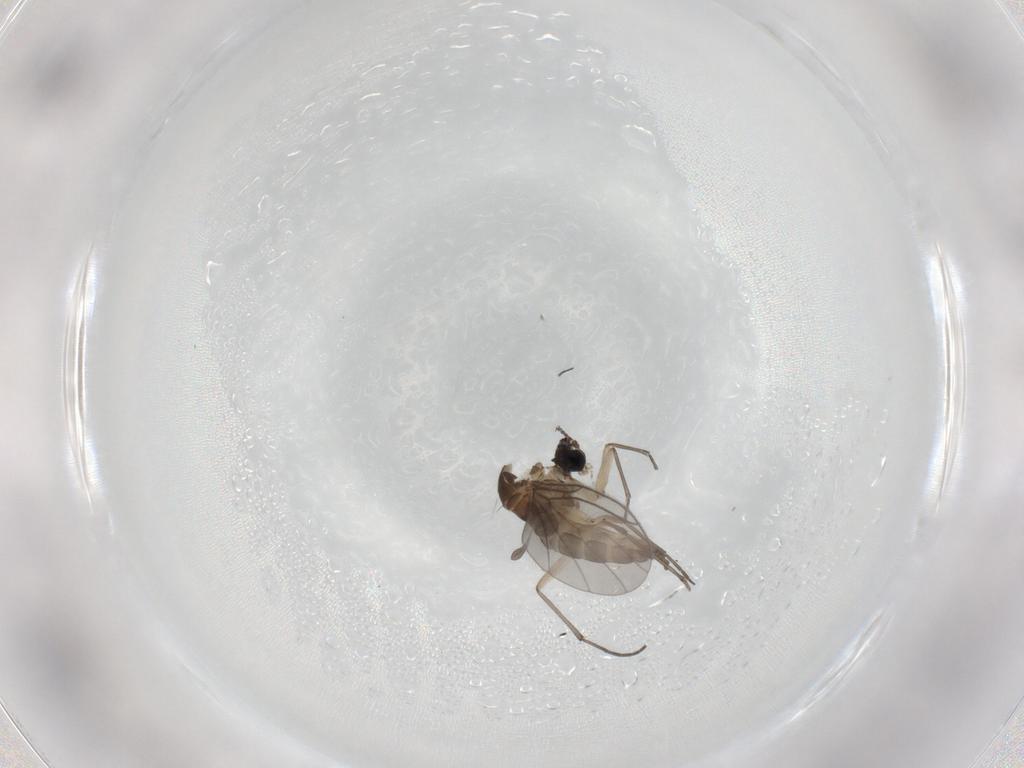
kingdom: Animalia
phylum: Arthropoda
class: Insecta
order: Diptera
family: Sciaridae
